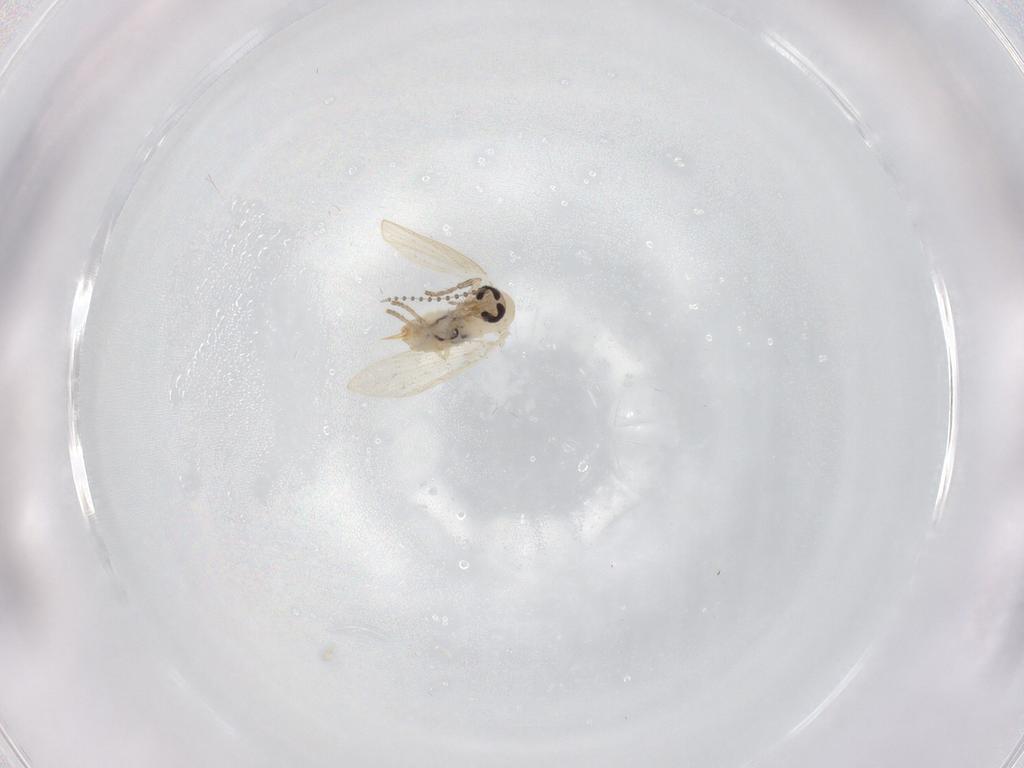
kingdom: Animalia
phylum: Arthropoda
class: Insecta
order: Diptera
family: Psychodidae
